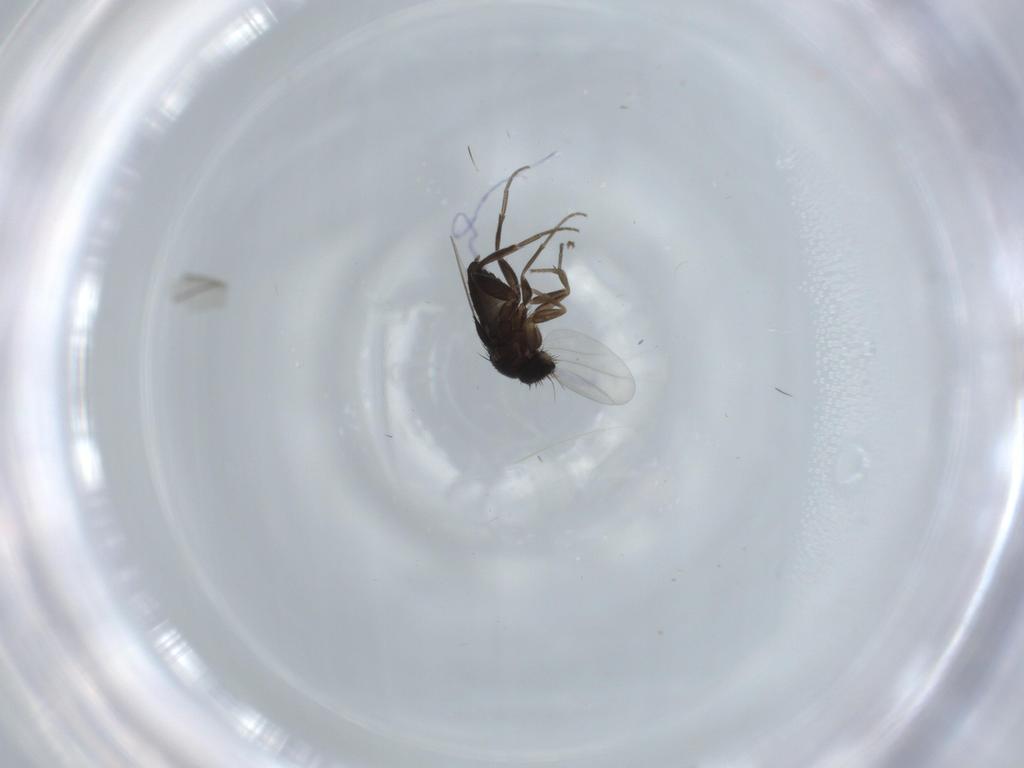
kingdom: Animalia
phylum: Arthropoda
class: Insecta
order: Diptera
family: Phoridae
